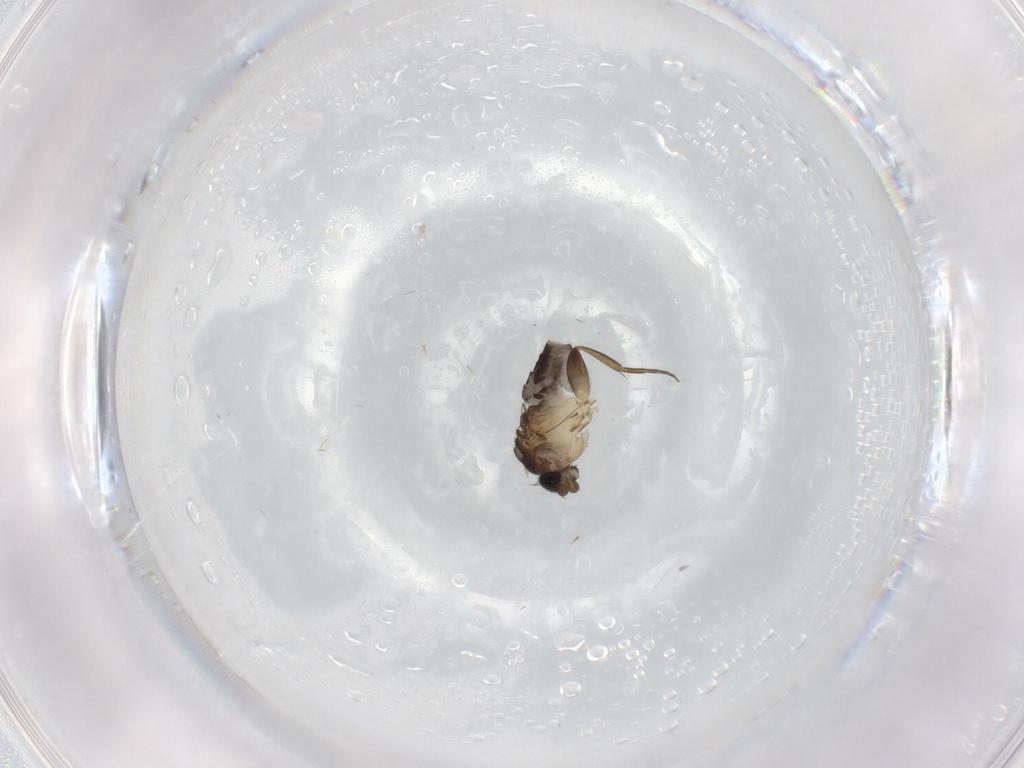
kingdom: Animalia
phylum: Arthropoda
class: Insecta
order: Diptera
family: Phoridae
